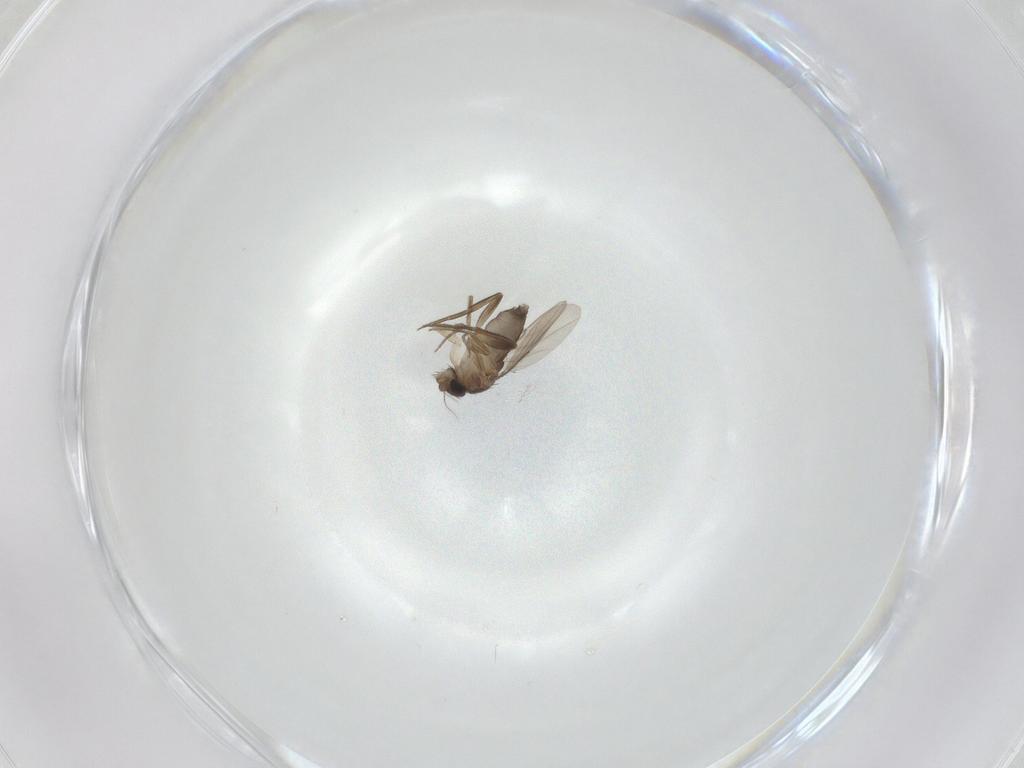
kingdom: Animalia
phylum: Arthropoda
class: Insecta
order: Diptera
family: Phoridae
